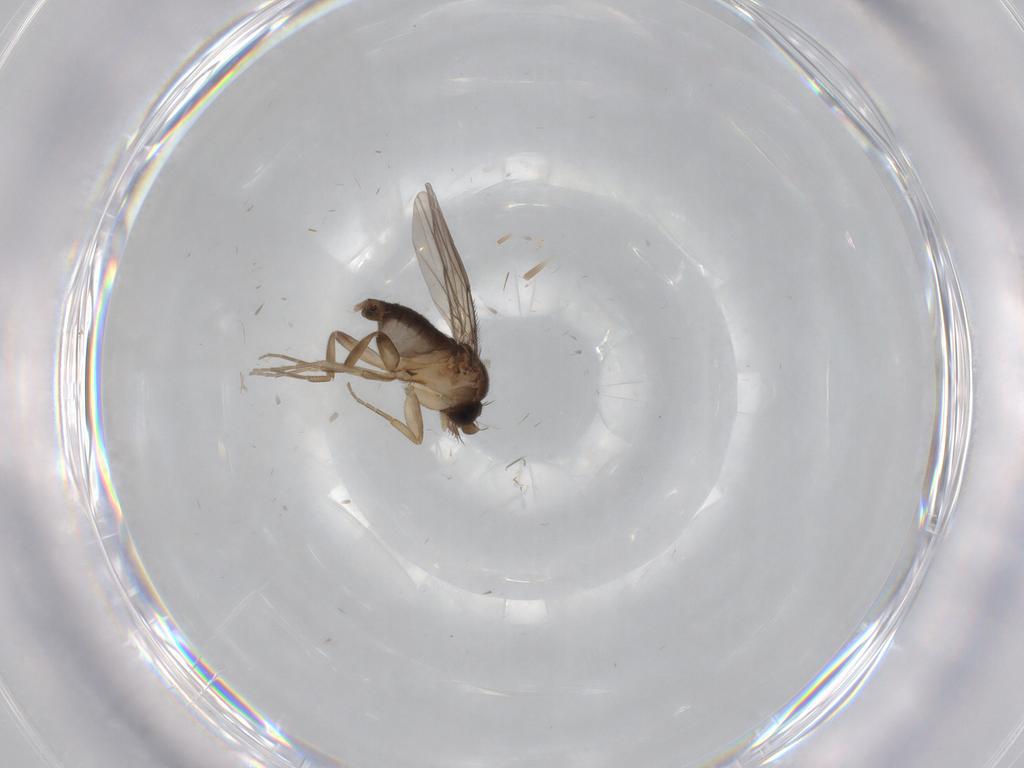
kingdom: Animalia
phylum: Arthropoda
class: Insecta
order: Diptera
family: Phoridae
